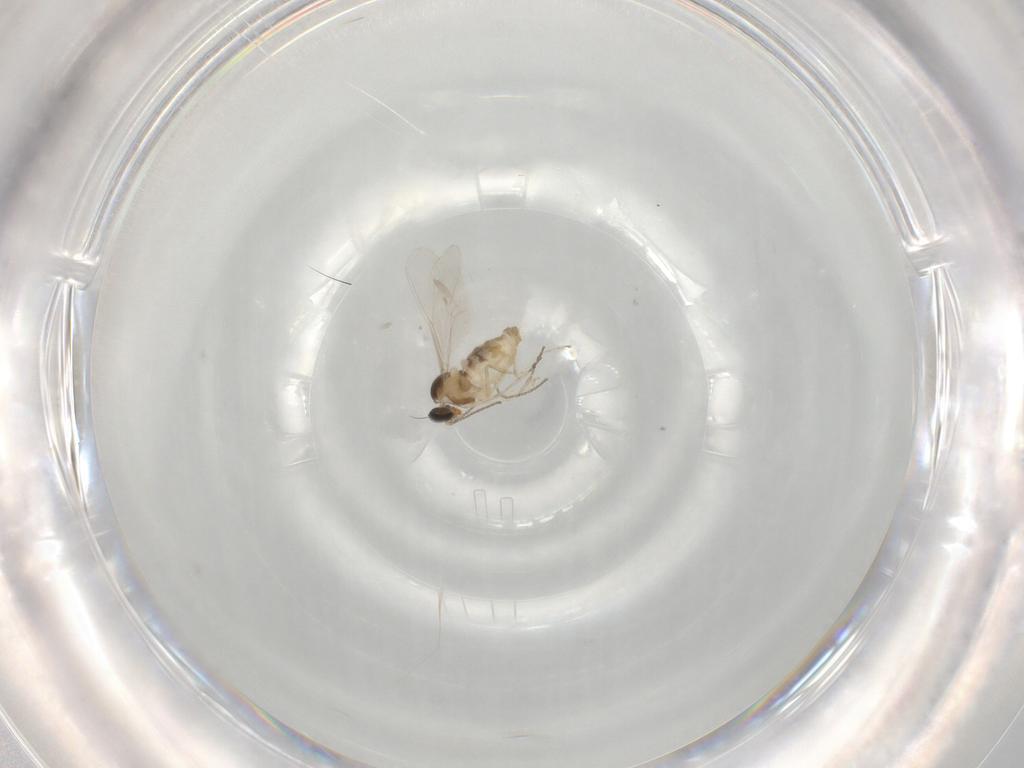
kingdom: Animalia
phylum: Arthropoda
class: Insecta
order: Diptera
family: Cecidomyiidae
